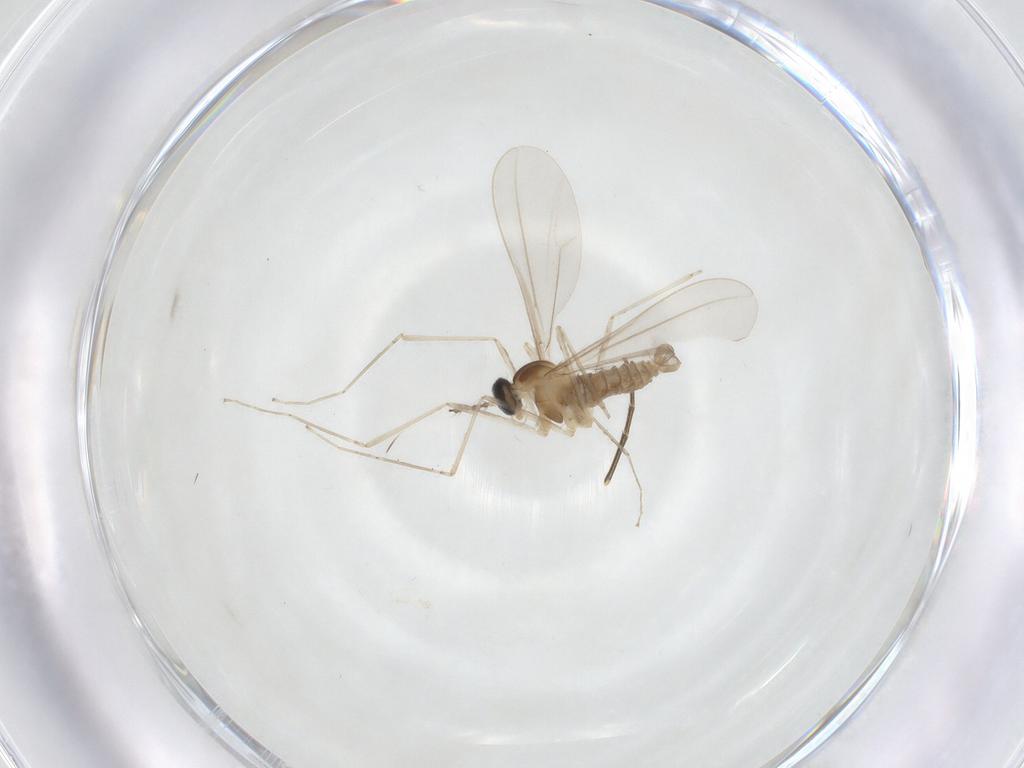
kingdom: Animalia
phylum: Arthropoda
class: Insecta
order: Diptera
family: Cecidomyiidae
